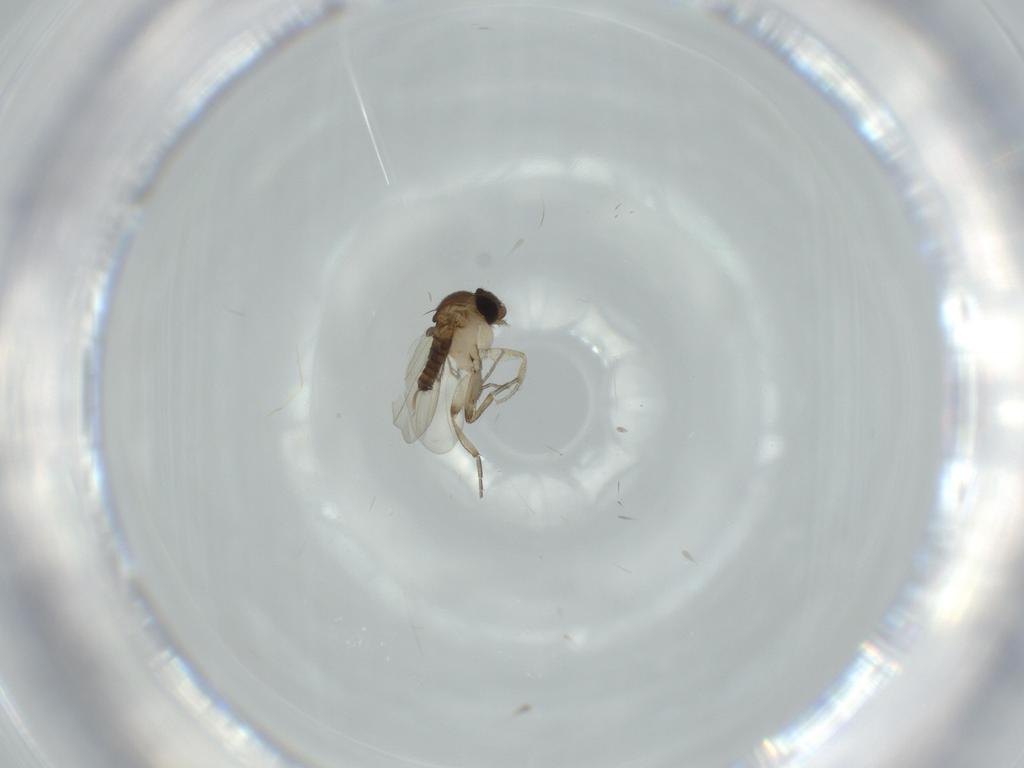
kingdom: Animalia
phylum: Arthropoda
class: Insecta
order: Diptera
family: Phoridae
